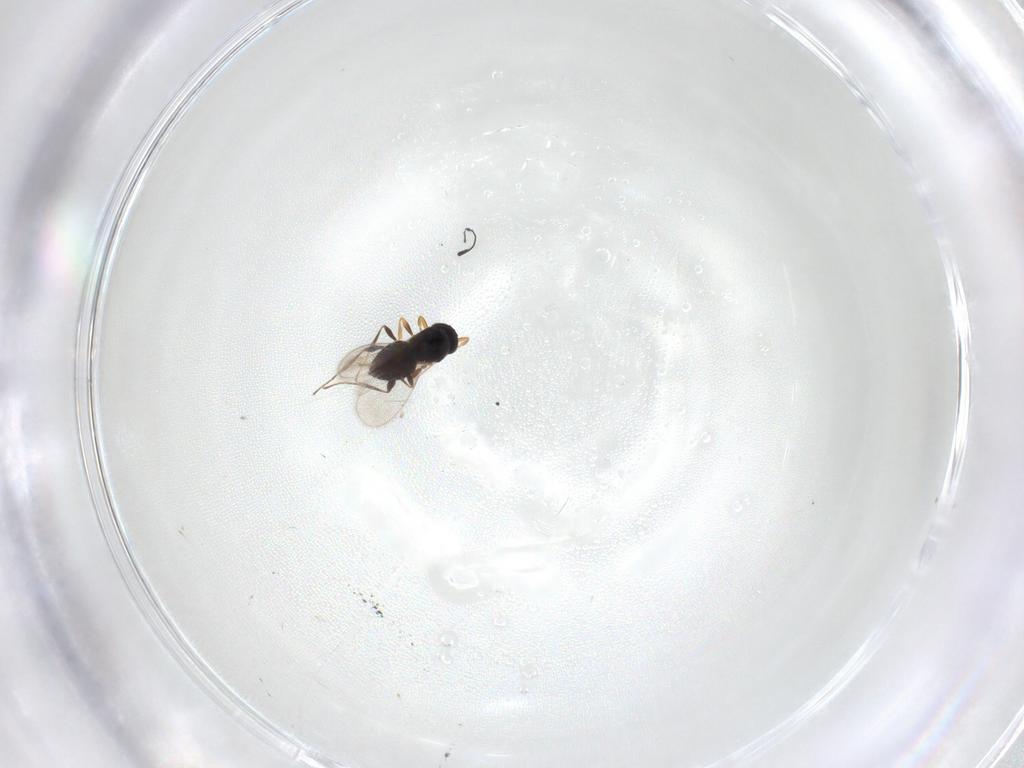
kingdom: Animalia
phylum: Arthropoda
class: Insecta
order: Hymenoptera
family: Platygastridae
